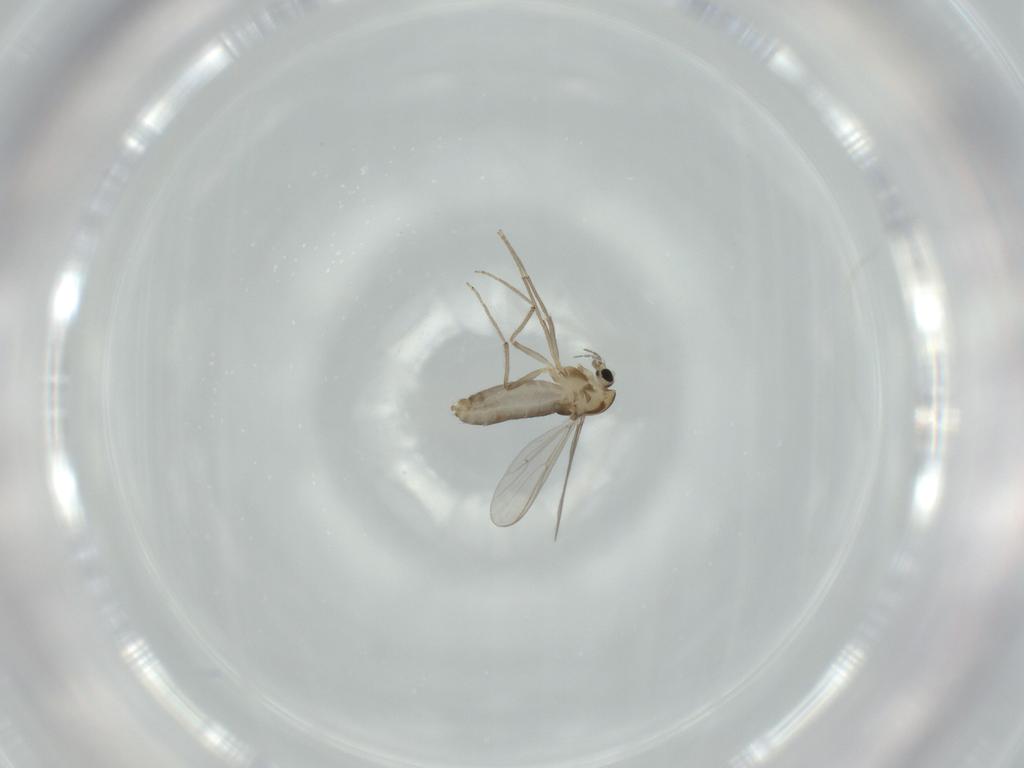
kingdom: Animalia
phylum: Arthropoda
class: Insecta
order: Diptera
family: Chironomidae
